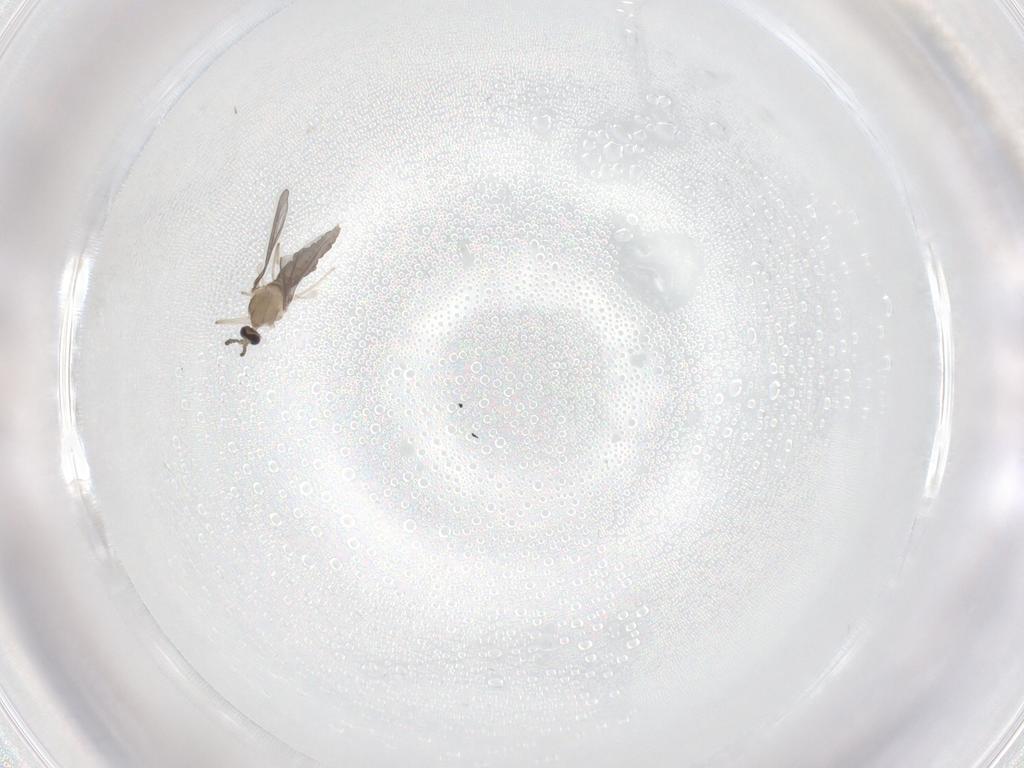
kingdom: Animalia
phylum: Arthropoda
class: Insecta
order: Diptera
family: Cecidomyiidae
